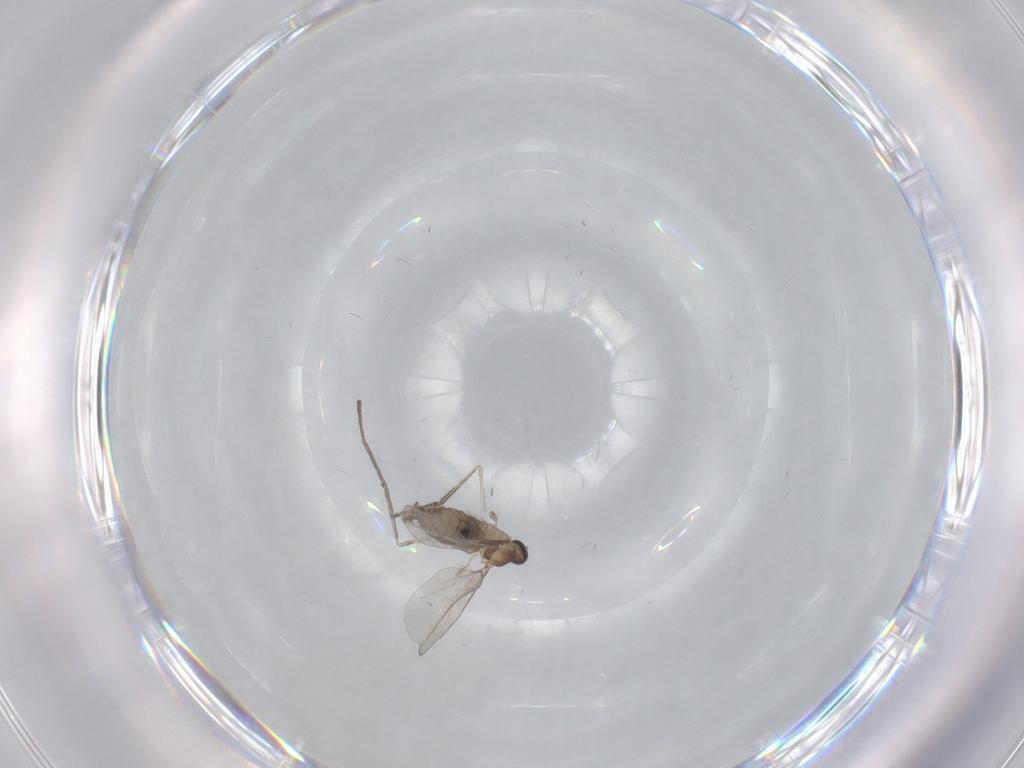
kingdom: Animalia
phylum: Arthropoda
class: Insecta
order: Diptera
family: Cecidomyiidae
